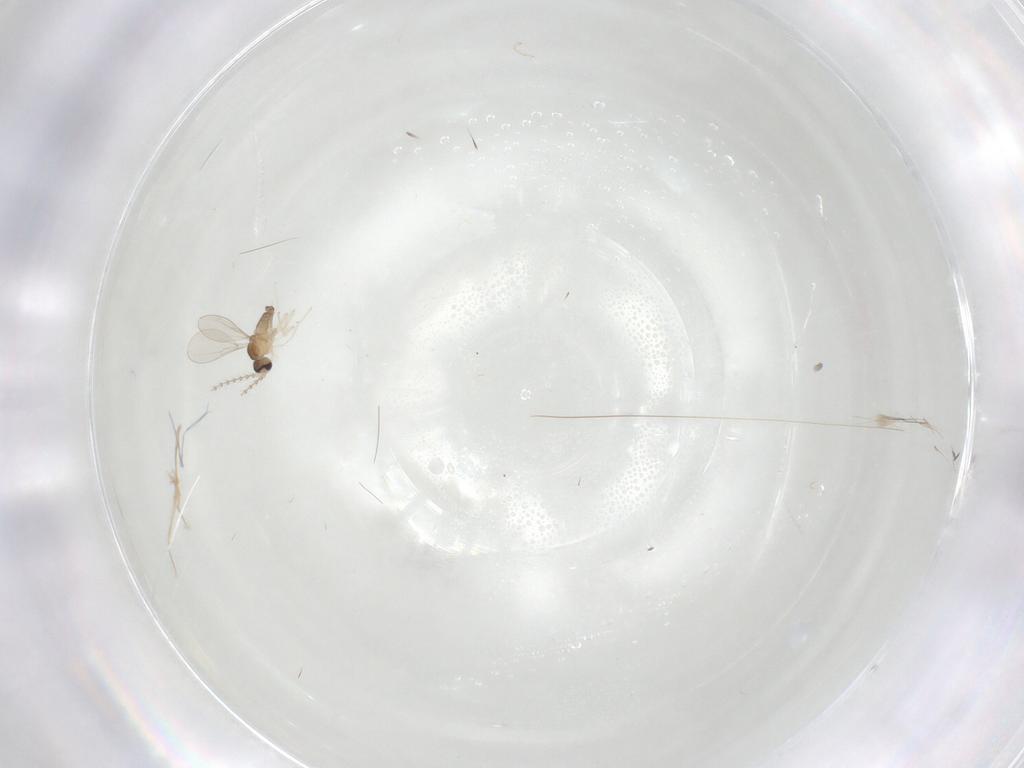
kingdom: Animalia
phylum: Arthropoda
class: Insecta
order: Diptera
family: Cecidomyiidae
